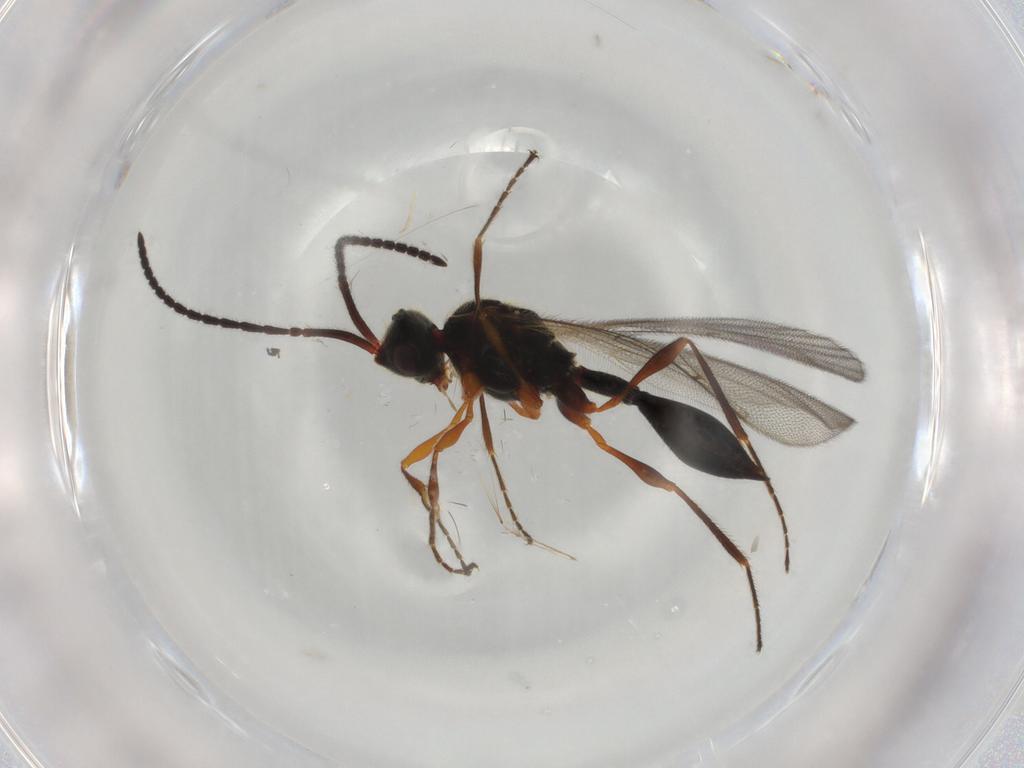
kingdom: Animalia
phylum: Arthropoda
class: Insecta
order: Hymenoptera
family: Diapriidae
